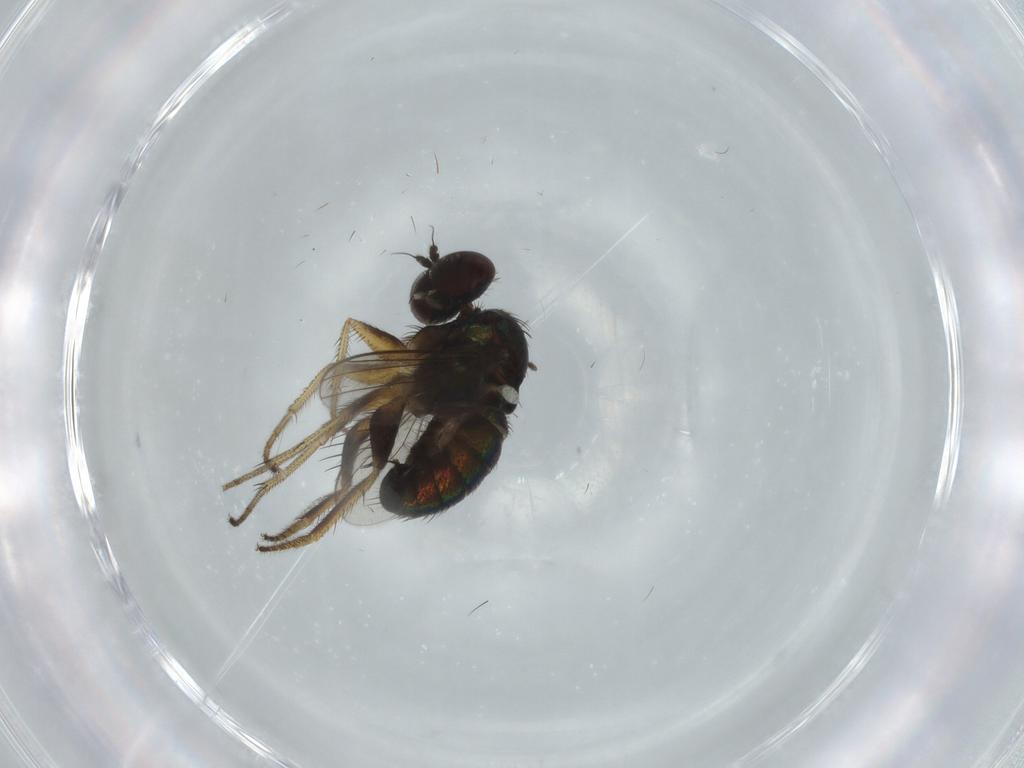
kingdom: Animalia
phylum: Arthropoda
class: Insecta
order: Diptera
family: Dolichopodidae
